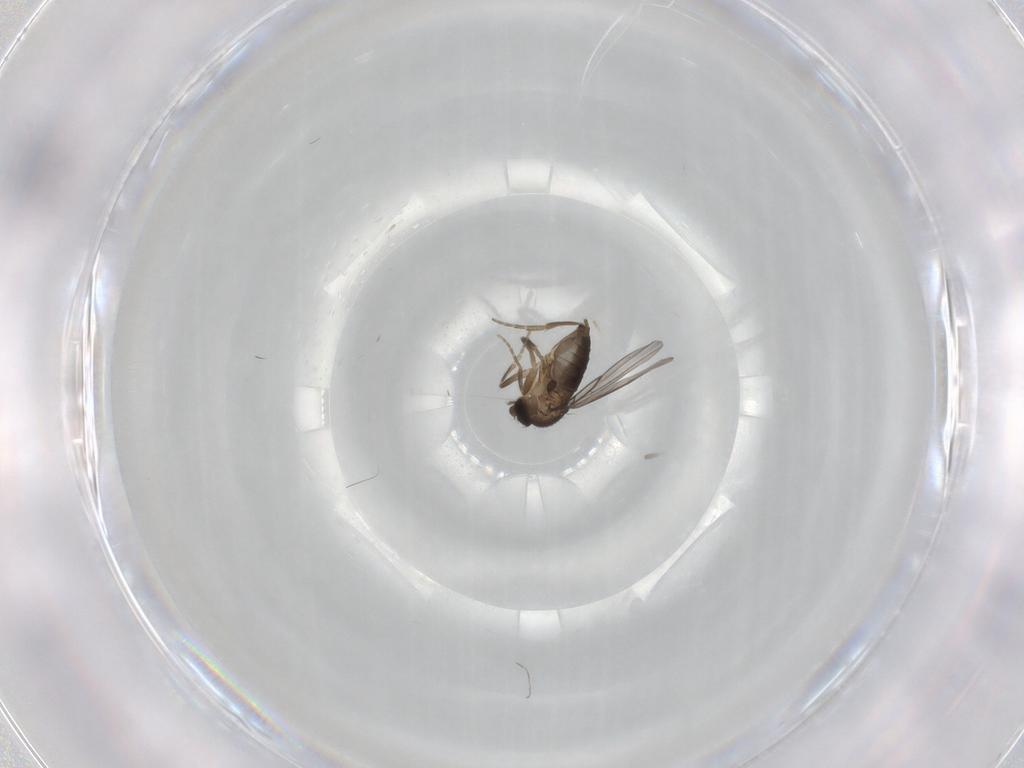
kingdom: Animalia
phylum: Arthropoda
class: Insecta
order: Diptera
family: Phoridae
